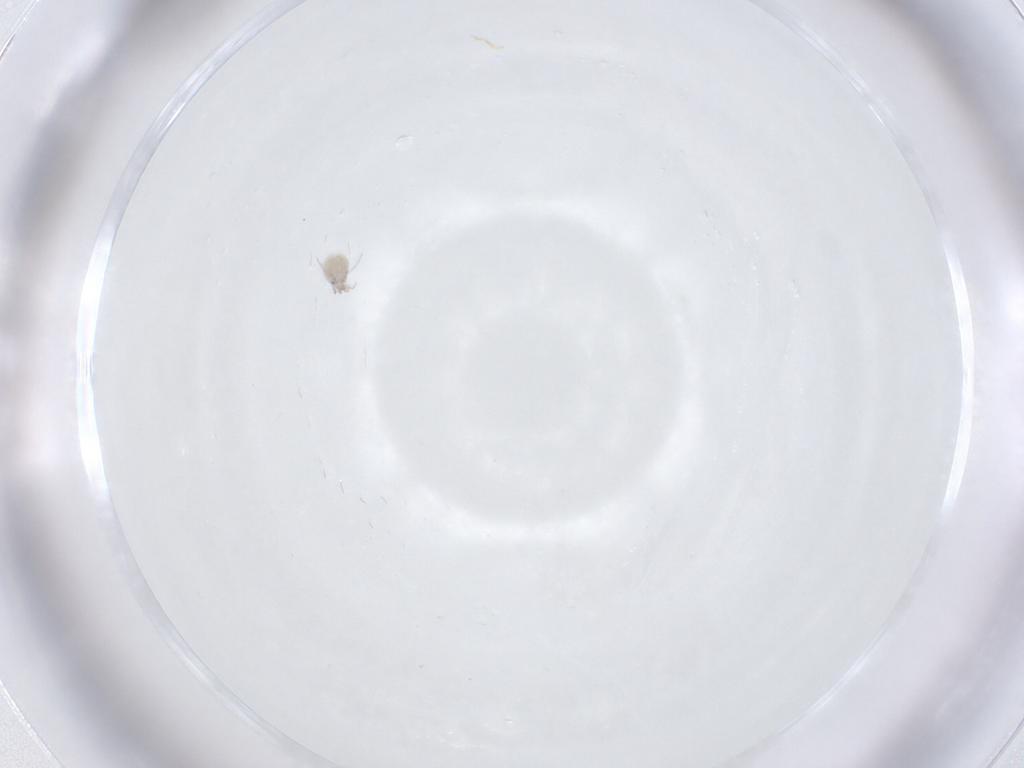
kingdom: Animalia
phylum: Arthropoda
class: Arachnida
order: Trombidiformes
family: Pionidae
